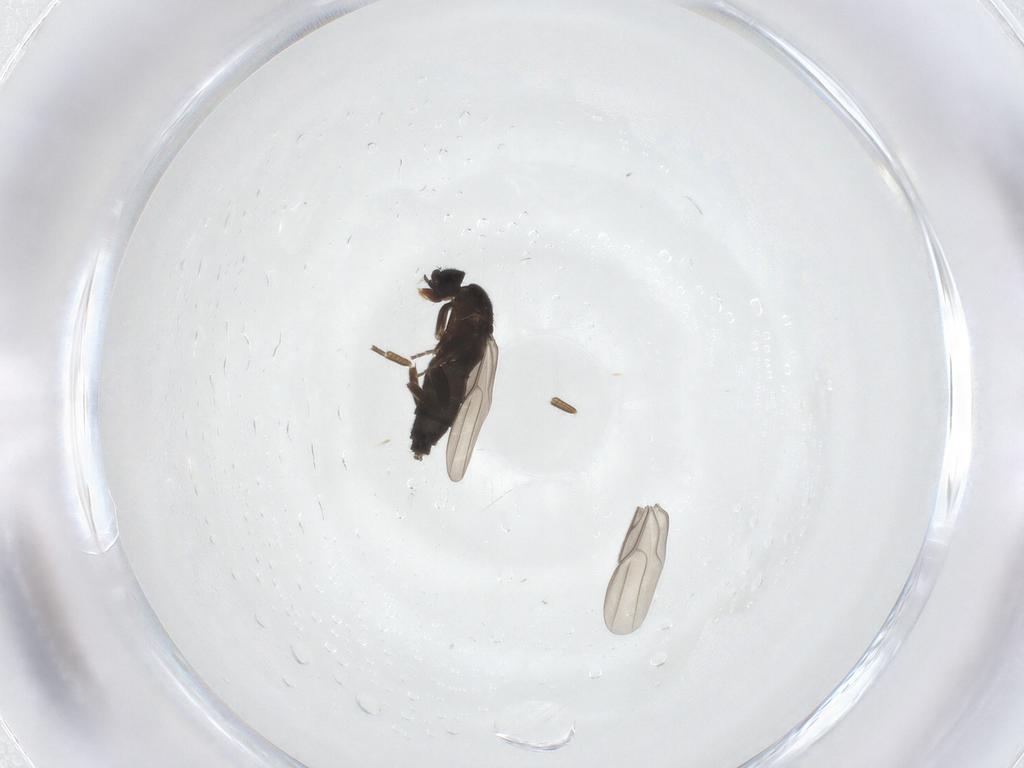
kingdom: Animalia
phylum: Arthropoda
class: Insecta
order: Diptera
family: Phoridae
